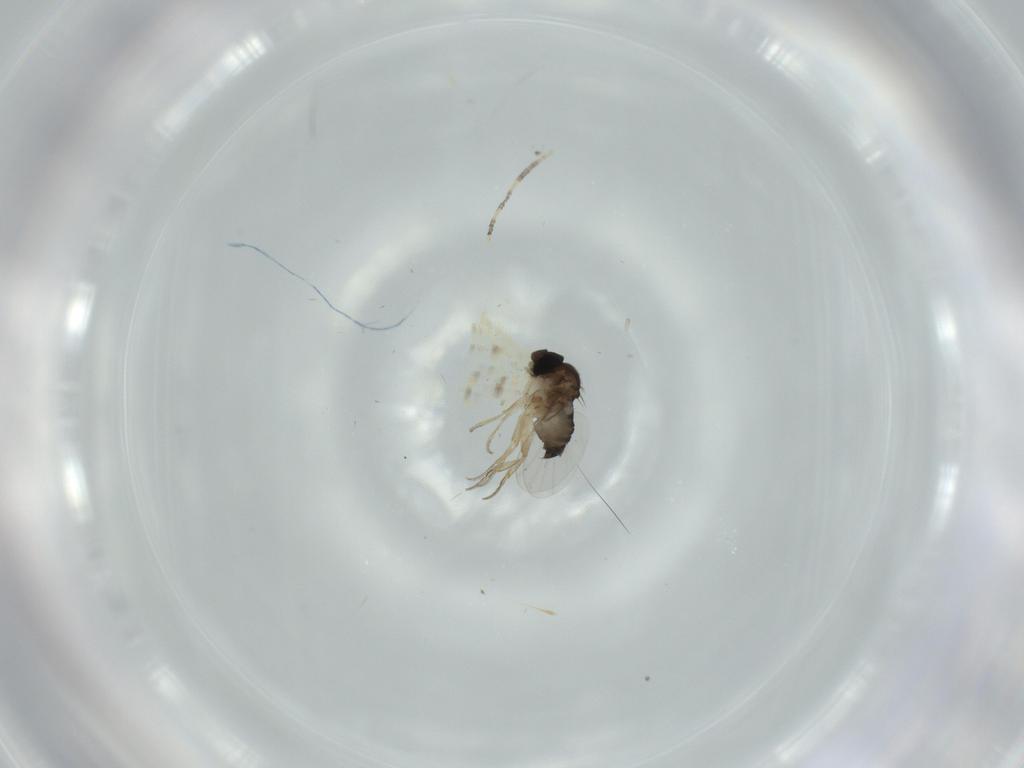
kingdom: Animalia
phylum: Arthropoda
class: Insecta
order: Diptera
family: Phoridae
